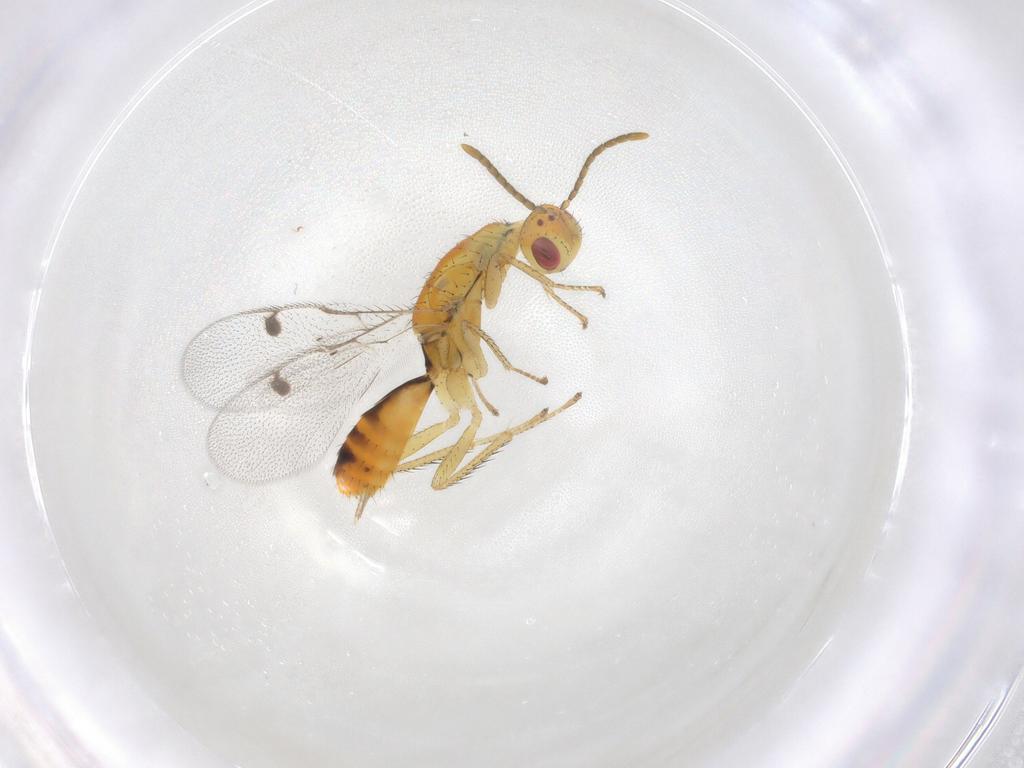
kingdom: Animalia
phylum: Arthropoda
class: Insecta
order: Hymenoptera
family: Megastigmidae
